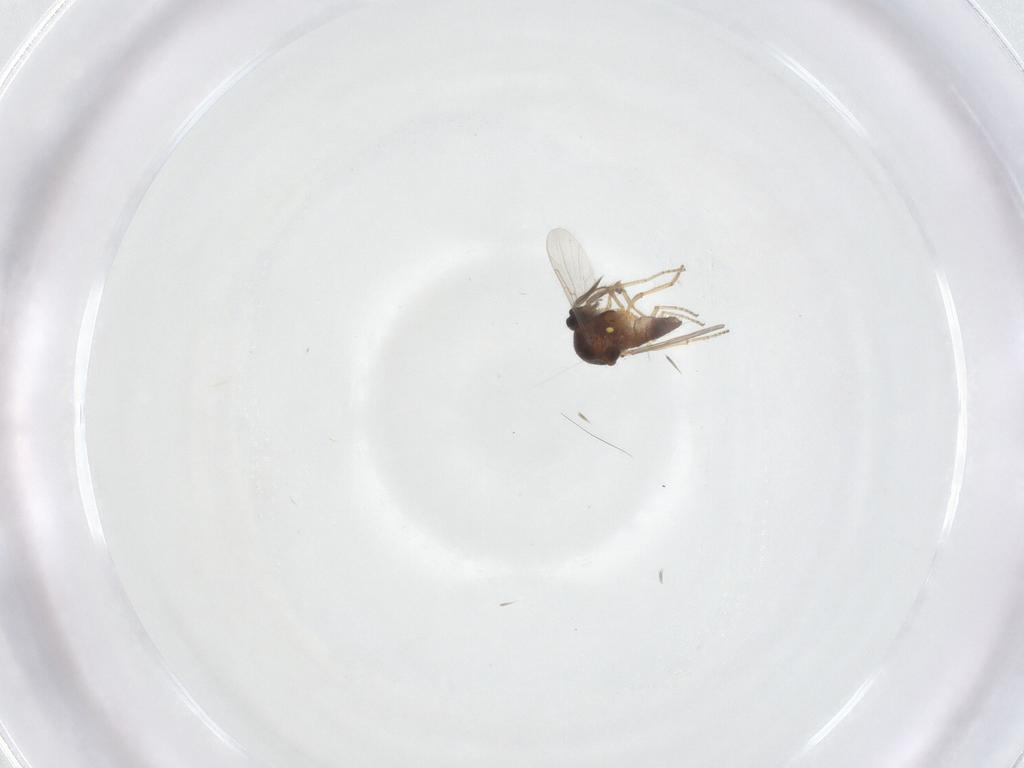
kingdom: Animalia
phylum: Arthropoda
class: Insecta
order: Diptera
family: Ceratopogonidae
